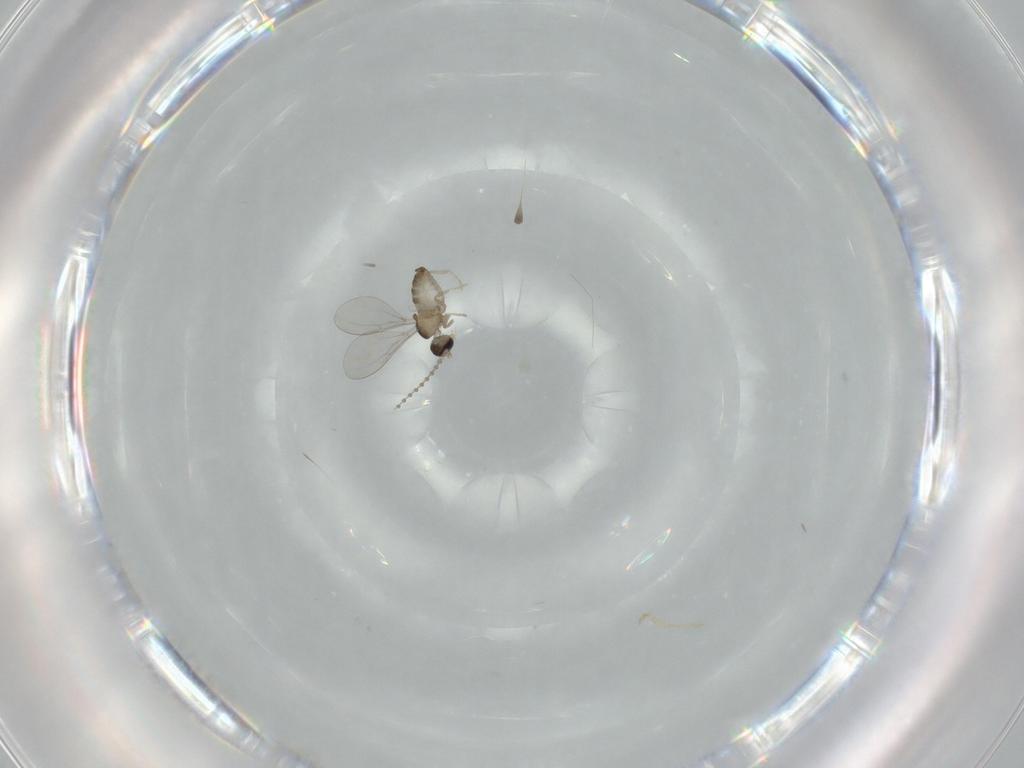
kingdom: Animalia
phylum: Arthropoda
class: Insecta
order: Diptera
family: Cecidomyiidae
